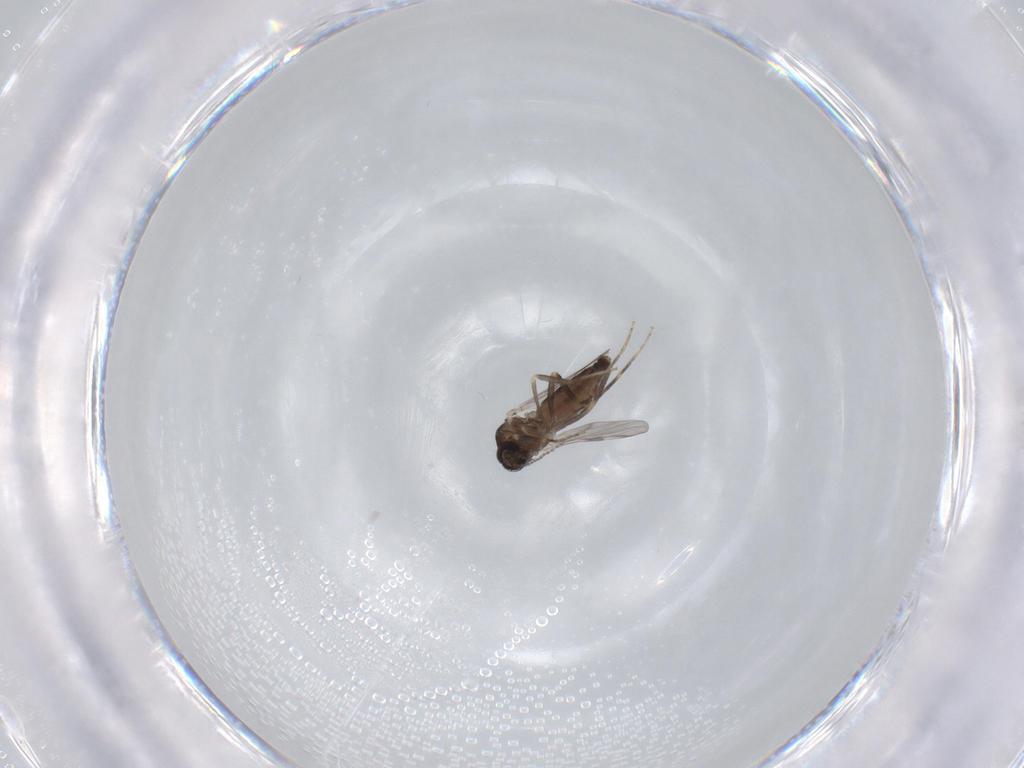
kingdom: Animalia
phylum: Arthropoda
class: Insecta
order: Diptera
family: Ceratopogonidae
